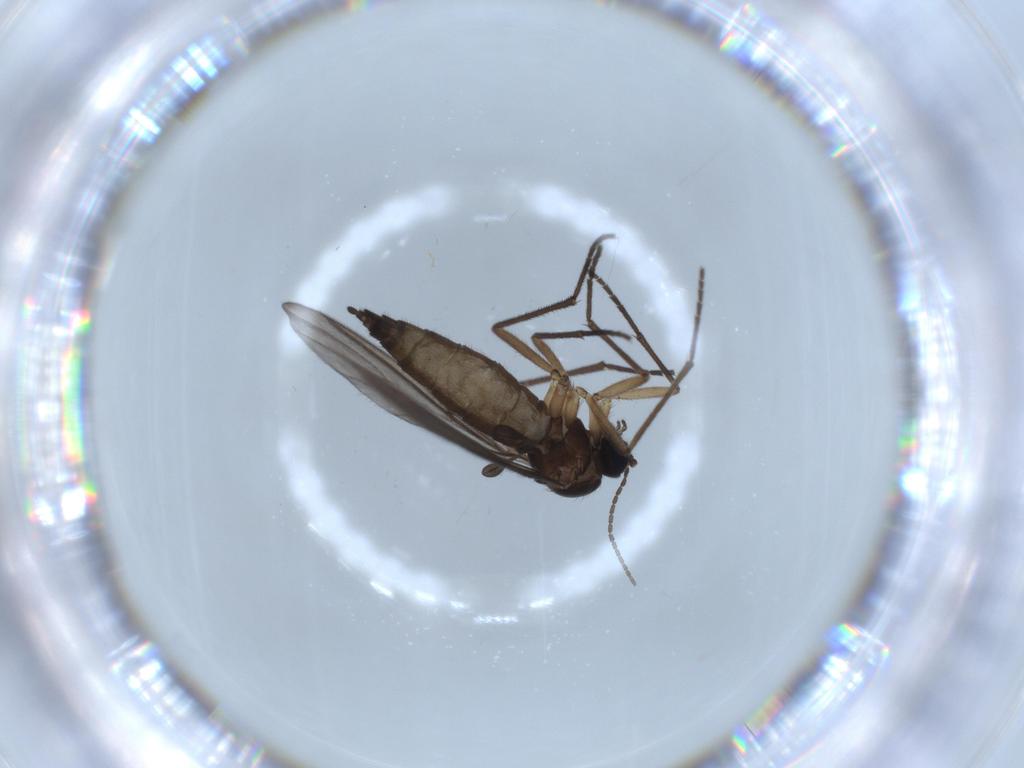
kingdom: Animalia
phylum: Arthropoda
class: Insecta
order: Diptera
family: Sciaridae
